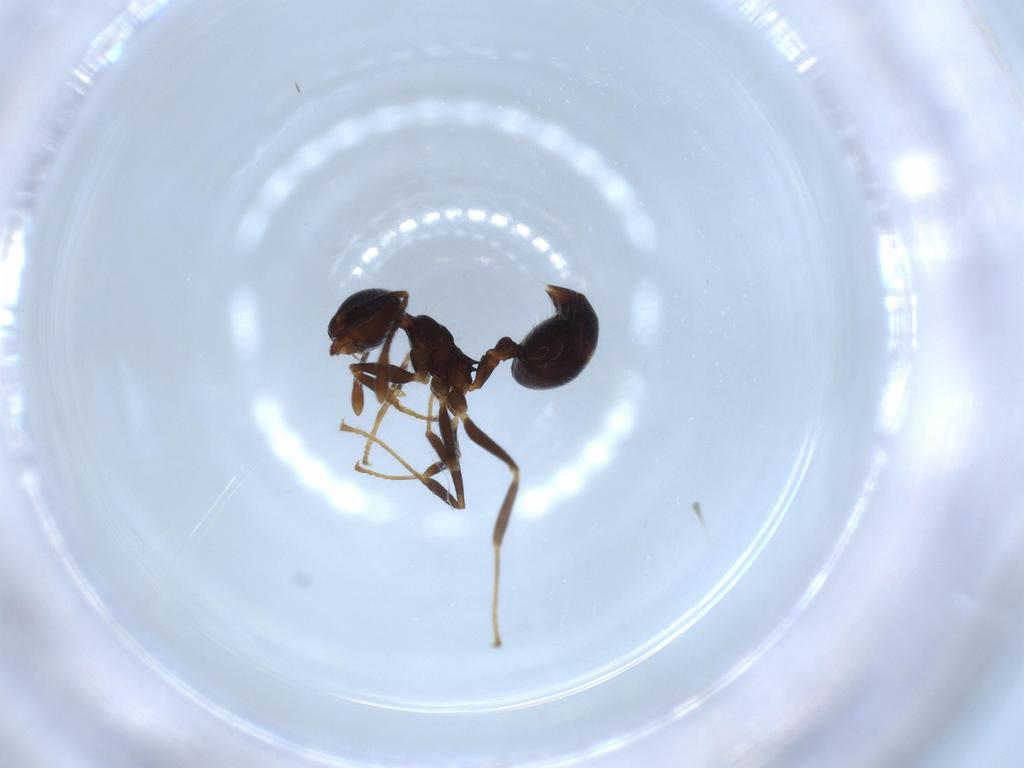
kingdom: Animalia
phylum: Arthropoda
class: Insecta
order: Hymenoptera
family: Formicidae
